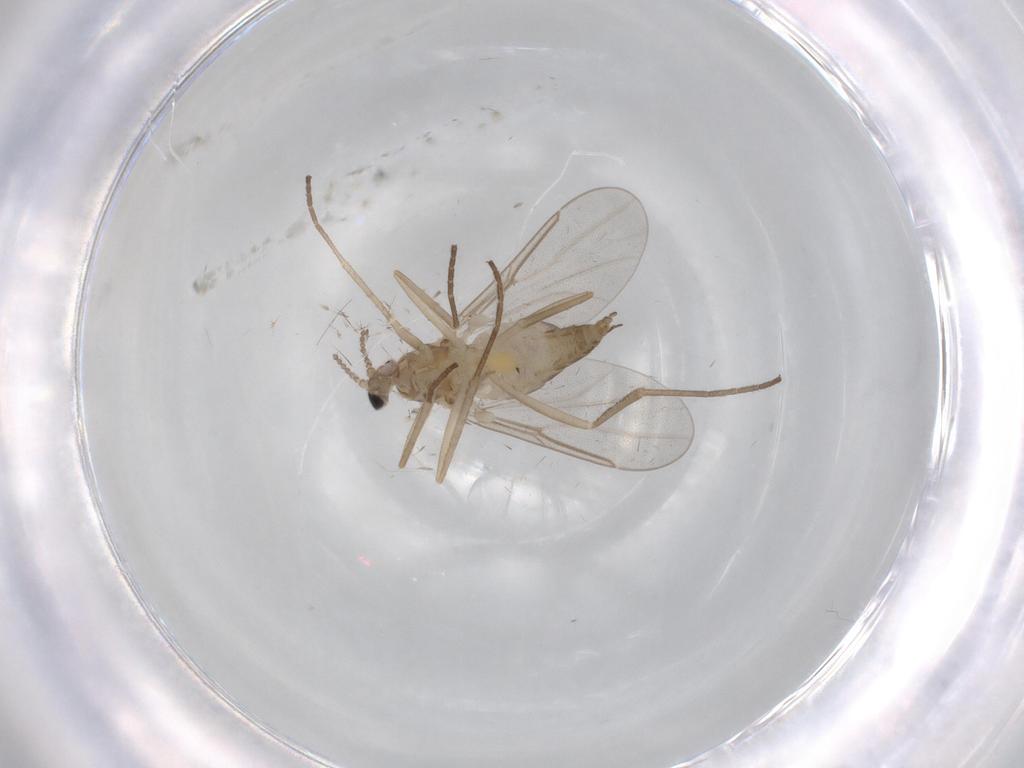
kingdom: Animalia
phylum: Arthropoda
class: Insecta
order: Diptera
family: Cecidomyiidae
